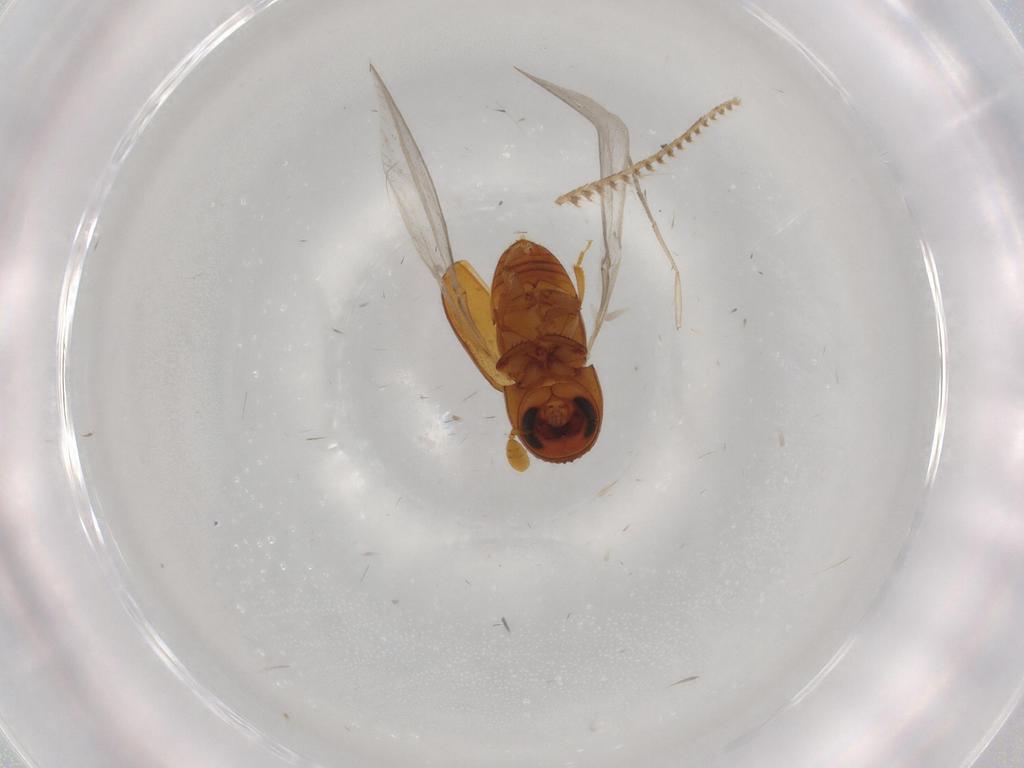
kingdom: Animalia
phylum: Arthropoda
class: Insecta
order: Coleoptera
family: Curculionidae
